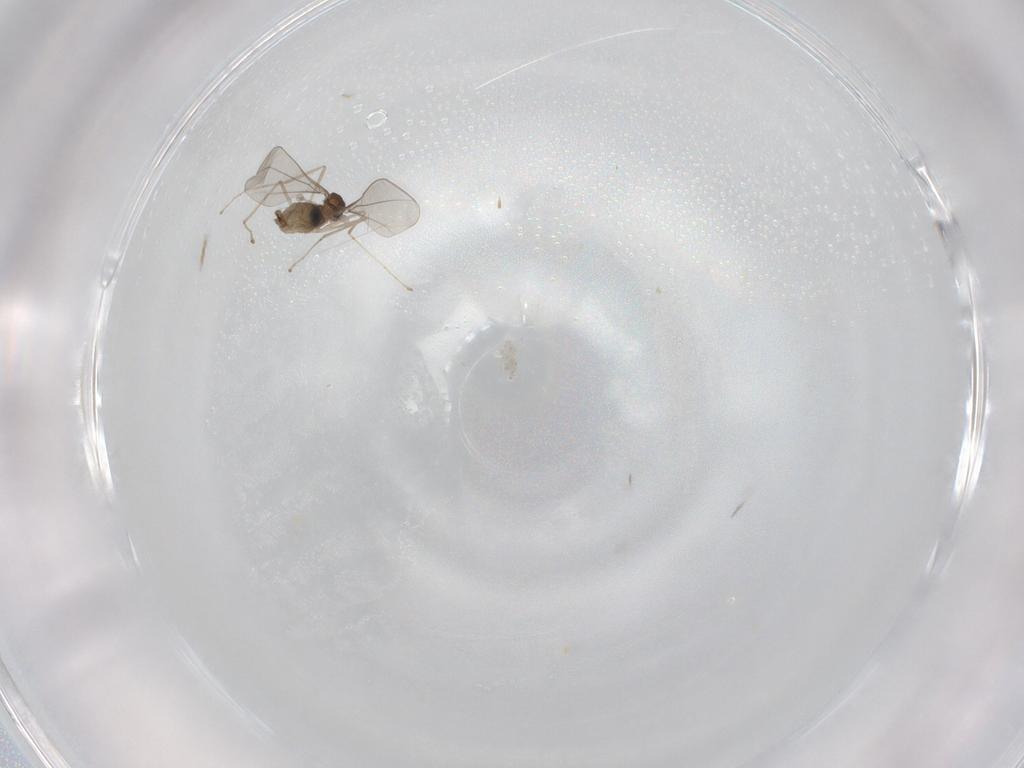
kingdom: Animalia
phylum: Arthropoda
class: Insecta
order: Diptera
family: Cecidomyiidae
